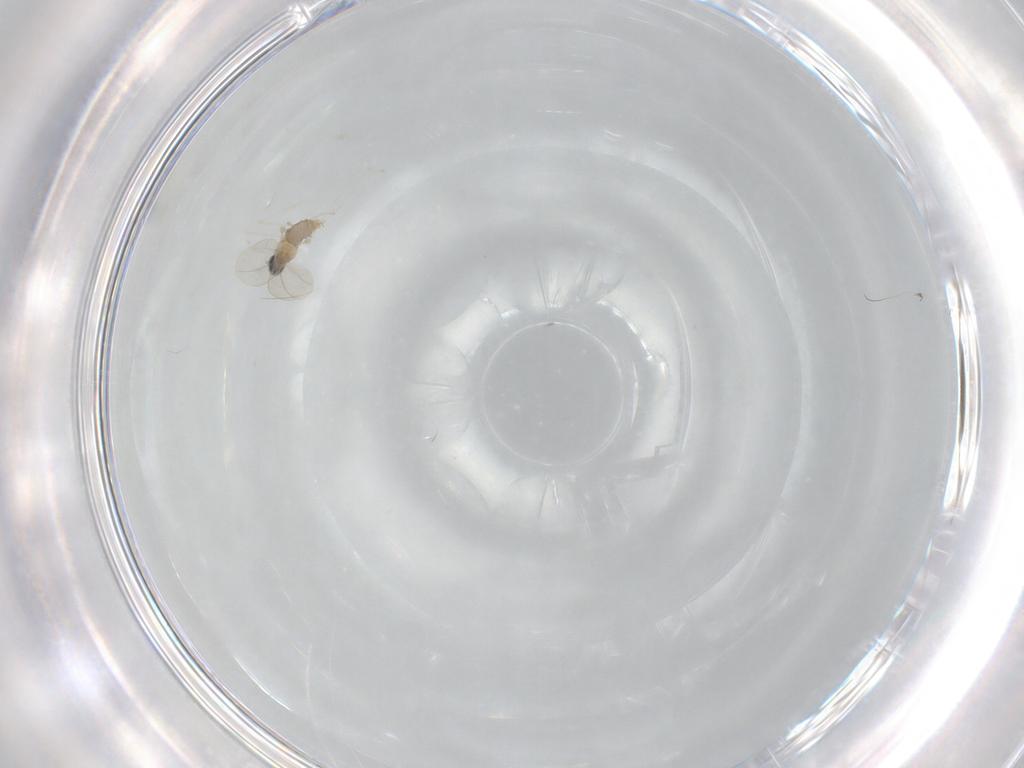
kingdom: Animalia
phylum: Arthropoda
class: Insecta
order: Diptera
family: Cecidomyiidae
